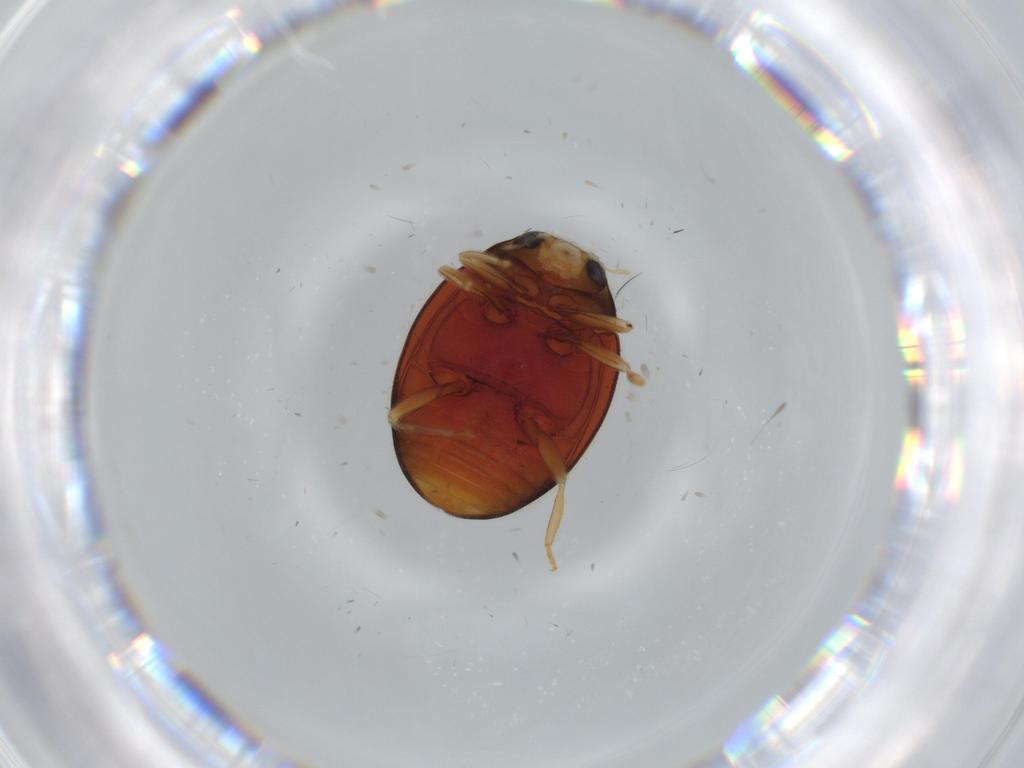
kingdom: Animalia
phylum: Arthropoda
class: Insecta
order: Coleoptera
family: Coccinellidae
